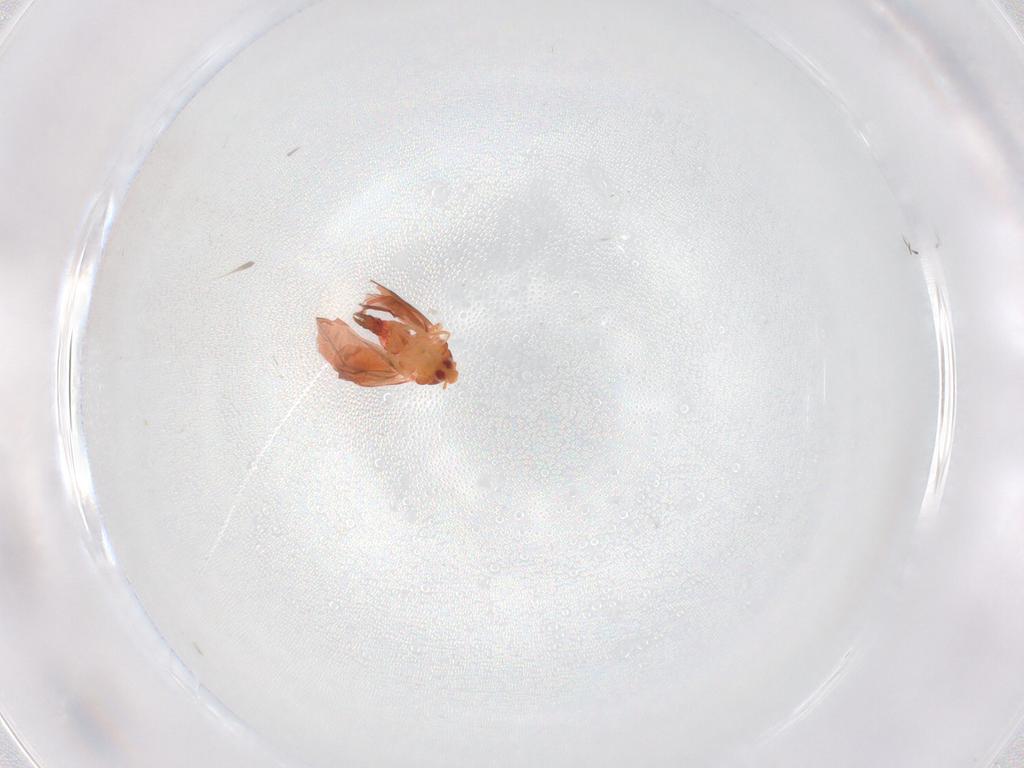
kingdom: Animalia
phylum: Arthropoda
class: Insecta
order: Hemiptera
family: Aleyrodidae
